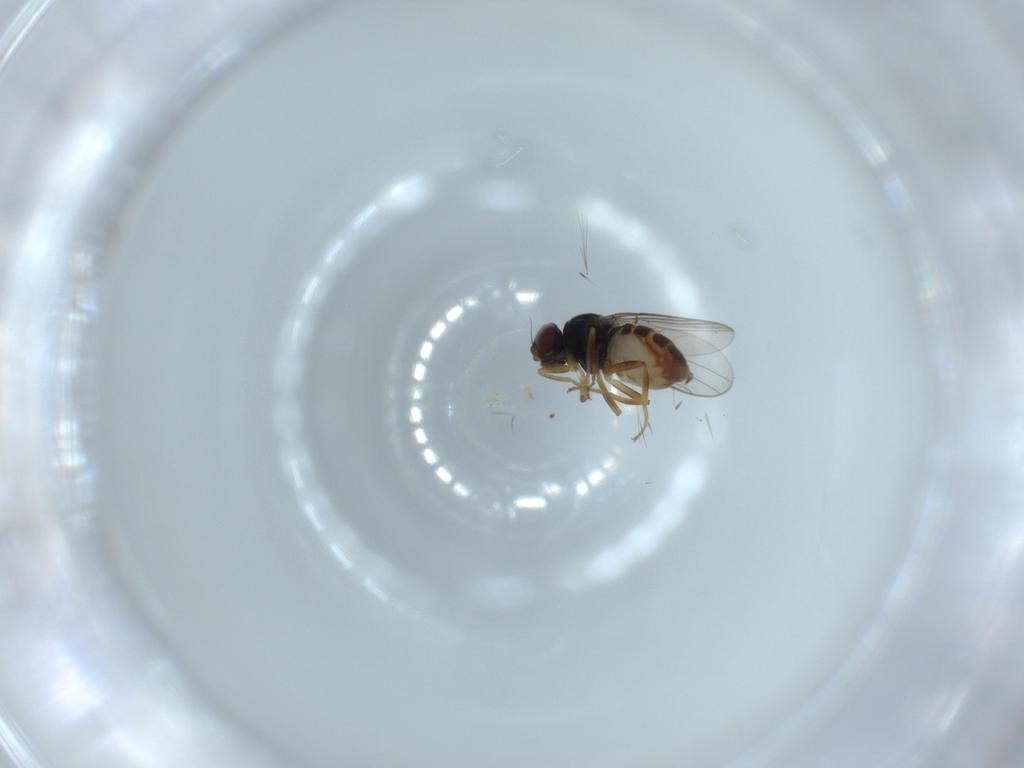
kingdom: Animalia
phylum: Arthropoda
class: Insecta
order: Diptera
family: Chloropidae
